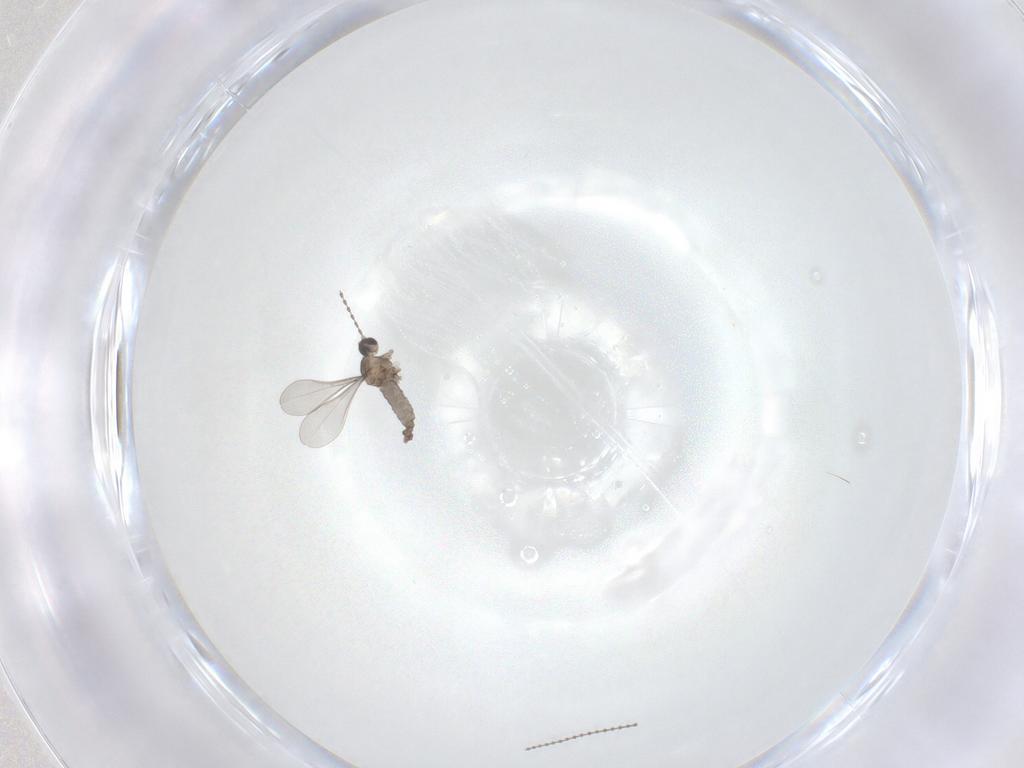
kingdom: Animalia
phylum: Arthropoda
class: Insecta
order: Diptera
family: Cecidomyiidae
